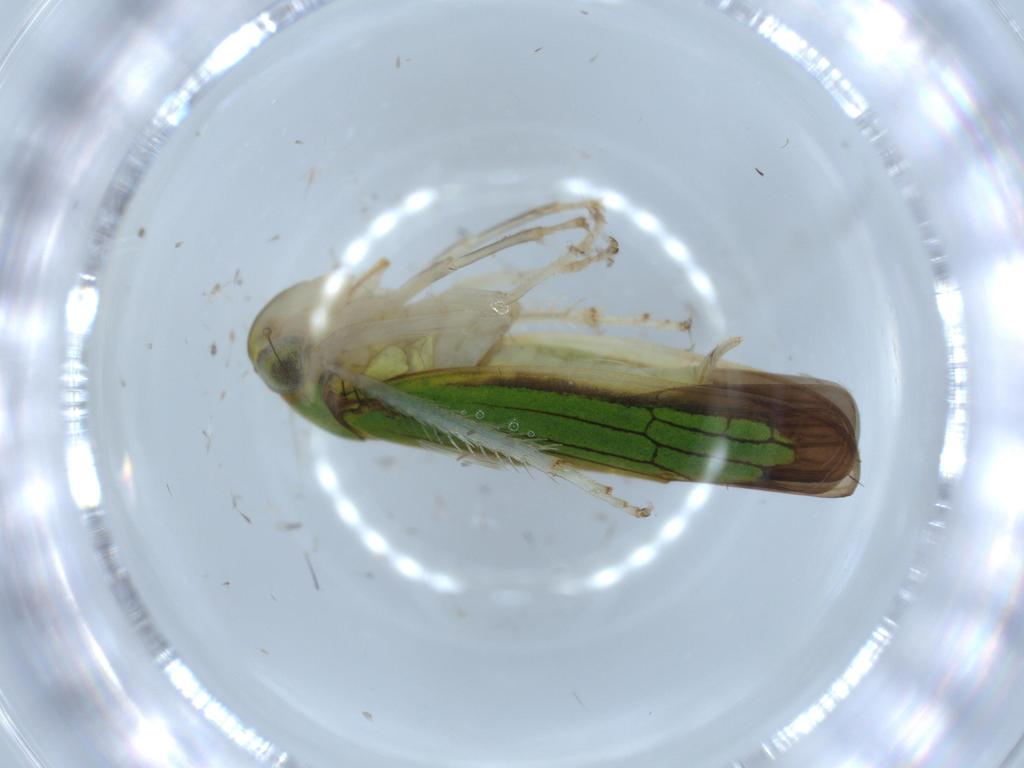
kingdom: Animalia
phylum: Arthropoda
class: Insecta
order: Hemiptera
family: Cicadellidae
